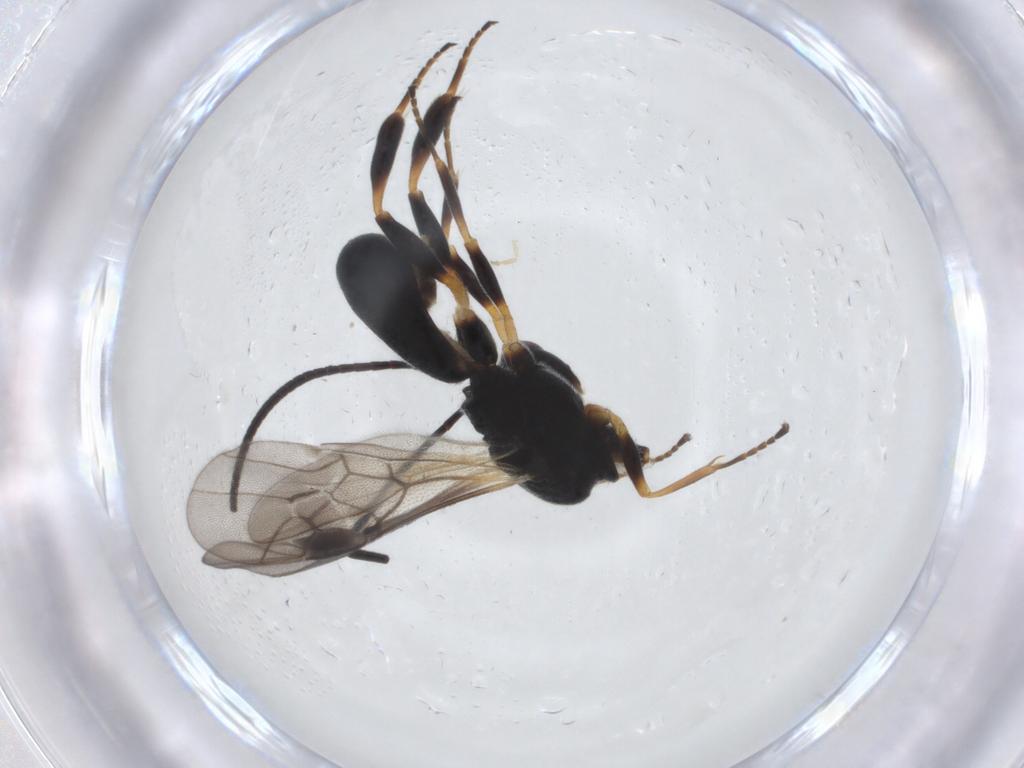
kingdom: Animalia
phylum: Arthropoda
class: Insecta
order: Hymenoptera
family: Braconidae
